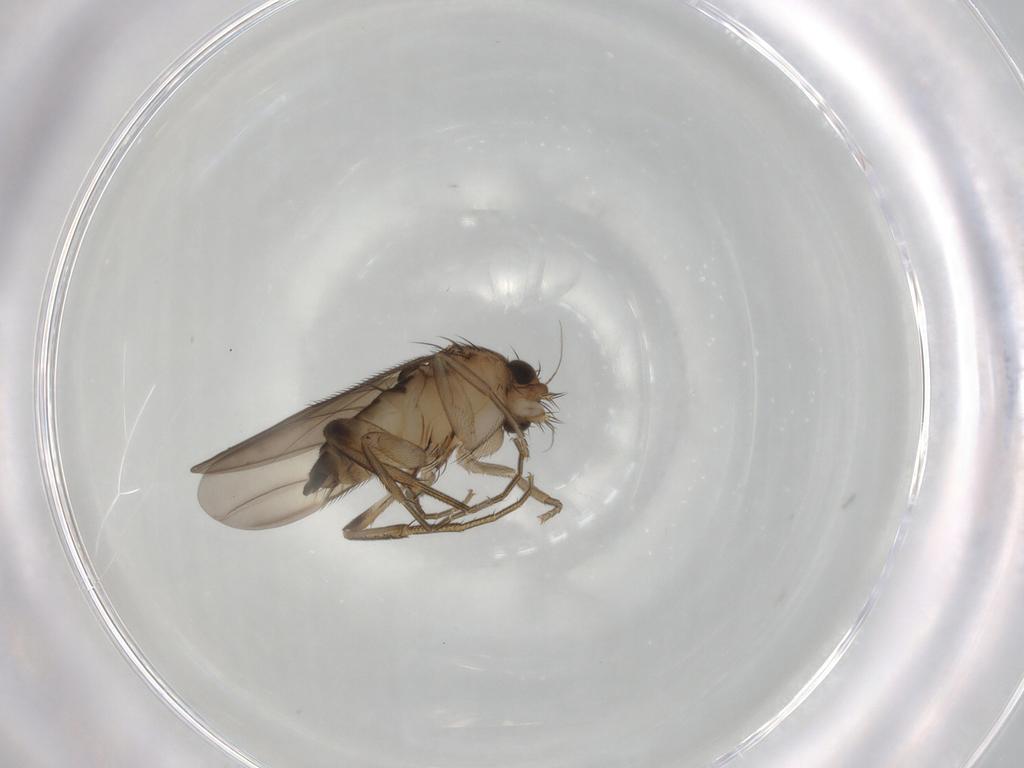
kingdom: Animalia
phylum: Arthropoda
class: Insecta
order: Diptera
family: Phoridae
